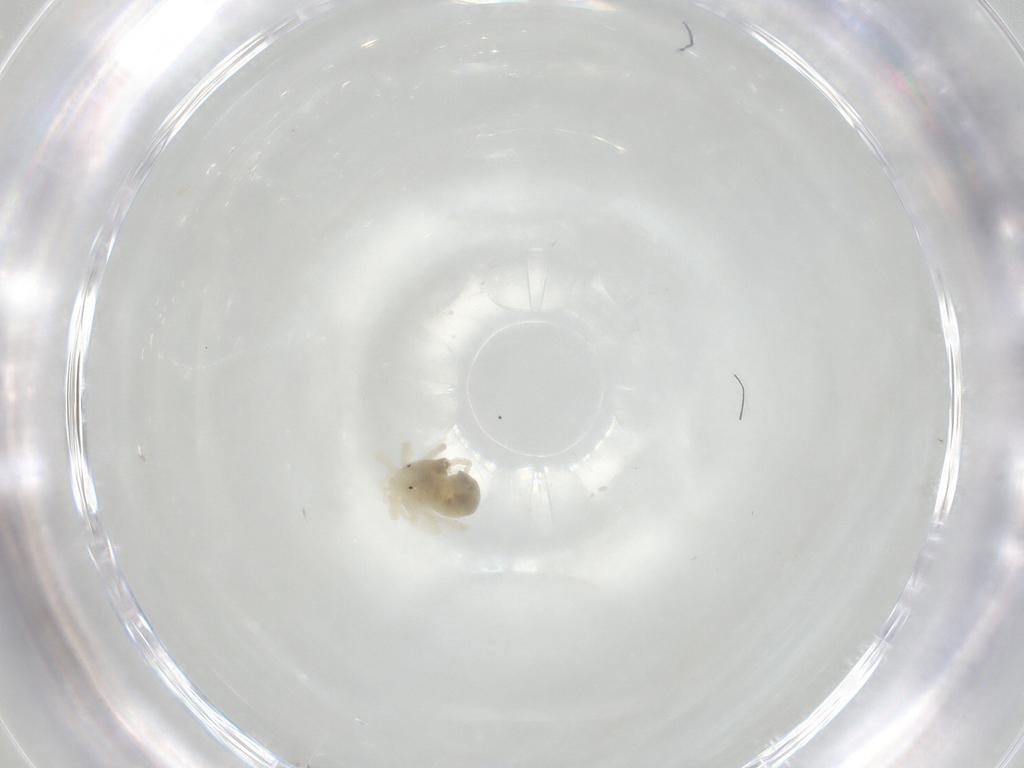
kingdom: Animalia
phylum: Arthropoda
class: Arachnida
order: Trombidiformes
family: Anystidae
